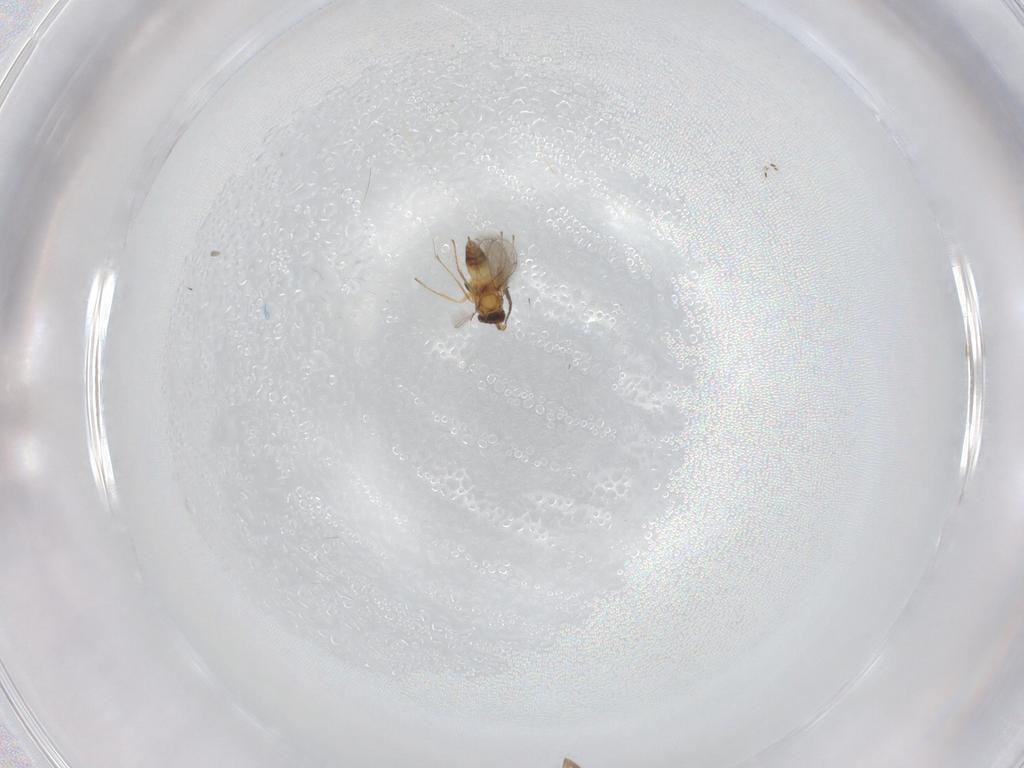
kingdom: Animalia
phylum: Arthropoda
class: Insecta
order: Hymenoptera
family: Mymaridae
